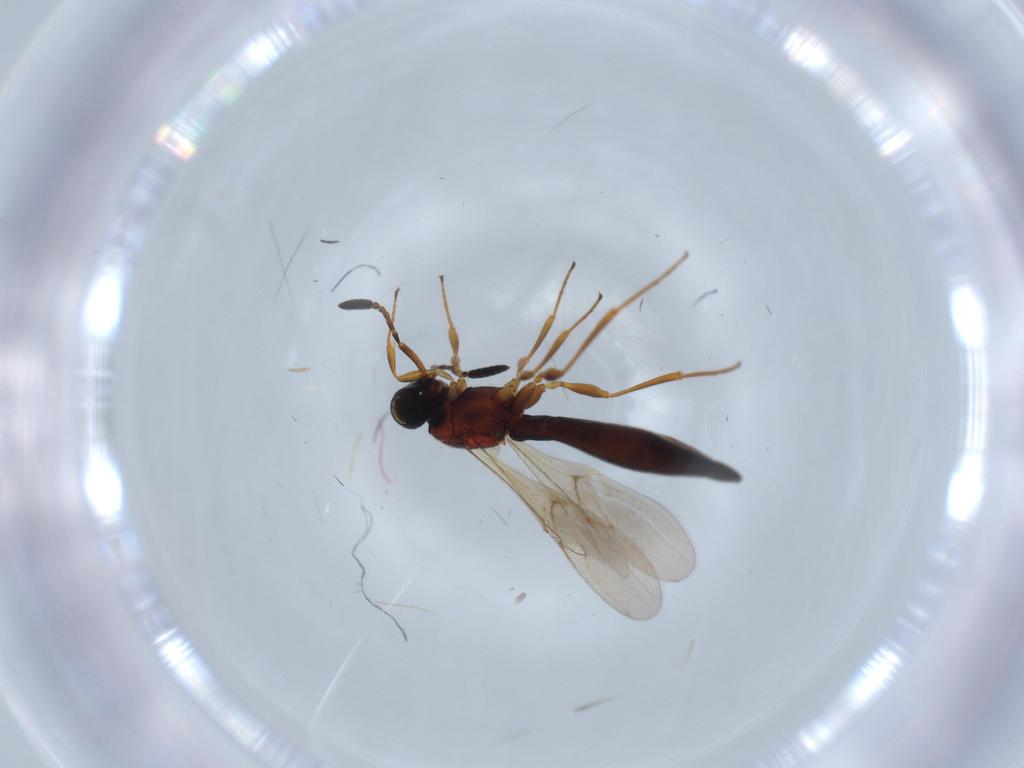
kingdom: Animalia
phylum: Arthropoda
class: Insecta
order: Hymenoptera
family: Scelionidae
